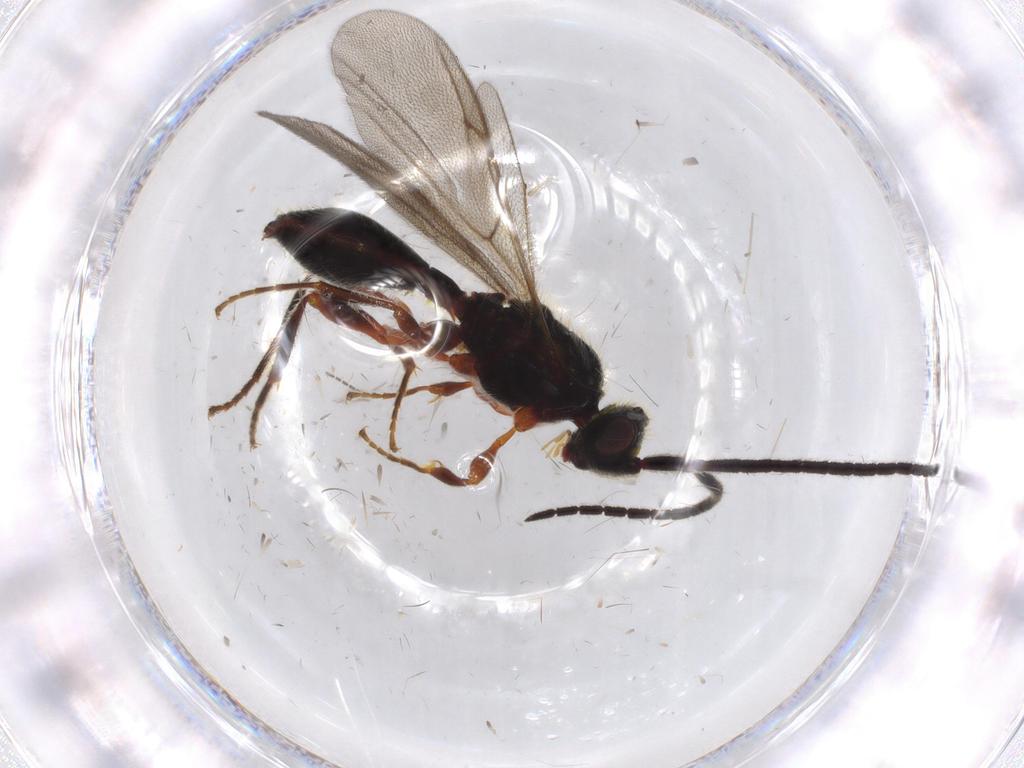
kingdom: Animalia
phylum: Arthropoda
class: Insecta
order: Hymenoptera
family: Diapriidae
